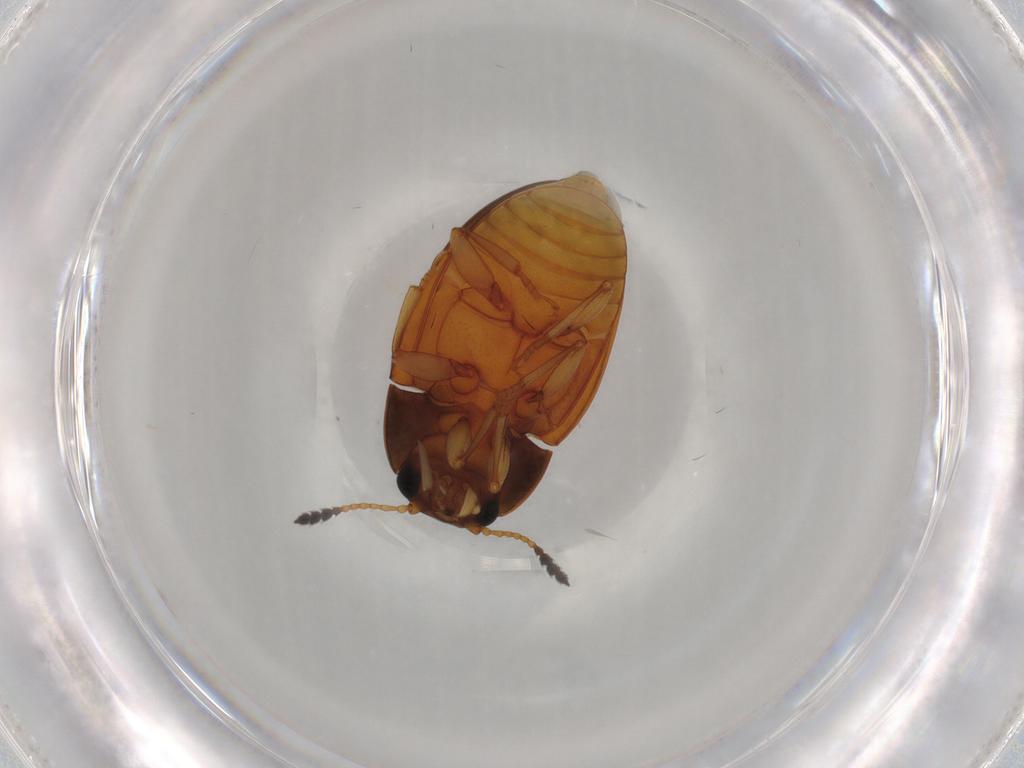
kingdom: Animalia
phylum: Arthropoda
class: Insecta
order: Coleoptera
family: Erotylidae
